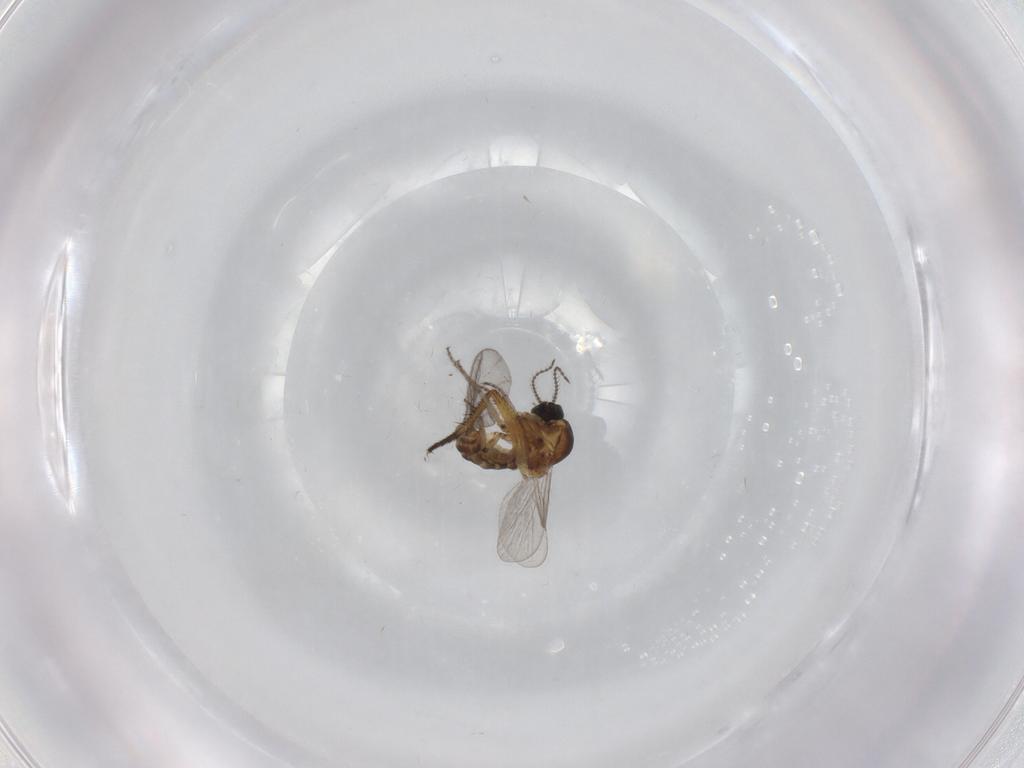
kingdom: Animalia
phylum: Arthropoda
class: Insecta
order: Diptera
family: Ceratopogonidae
